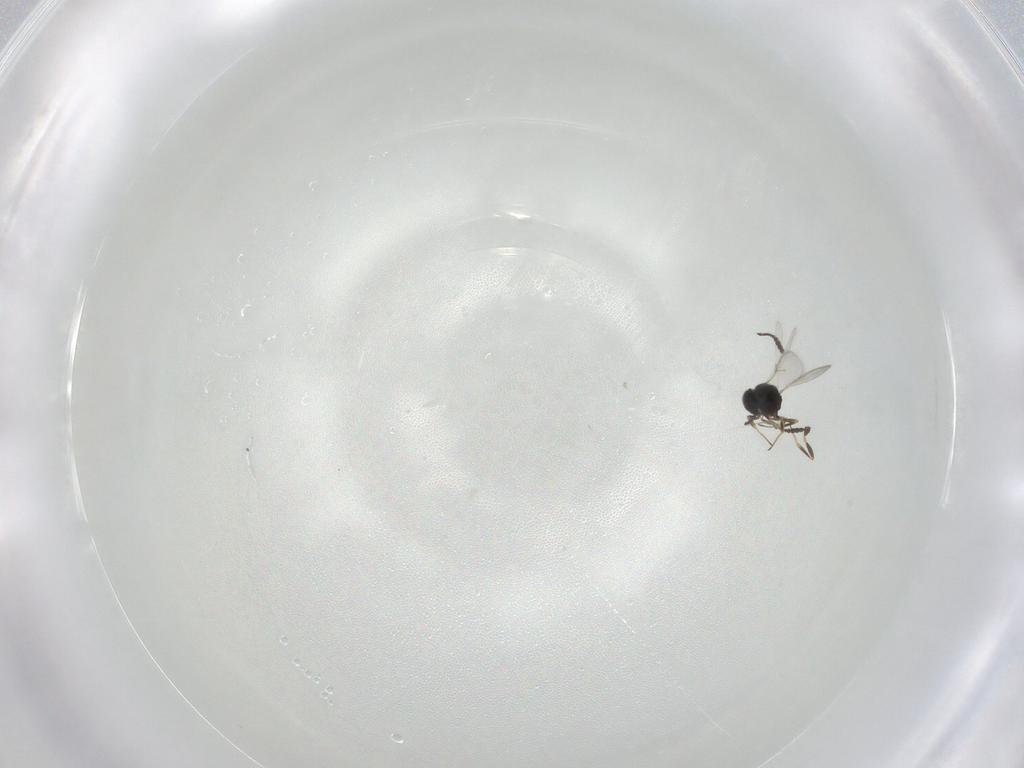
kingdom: Animalia
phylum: Arthropoda
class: Insecta
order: Hymenoptera
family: Scelionidae
